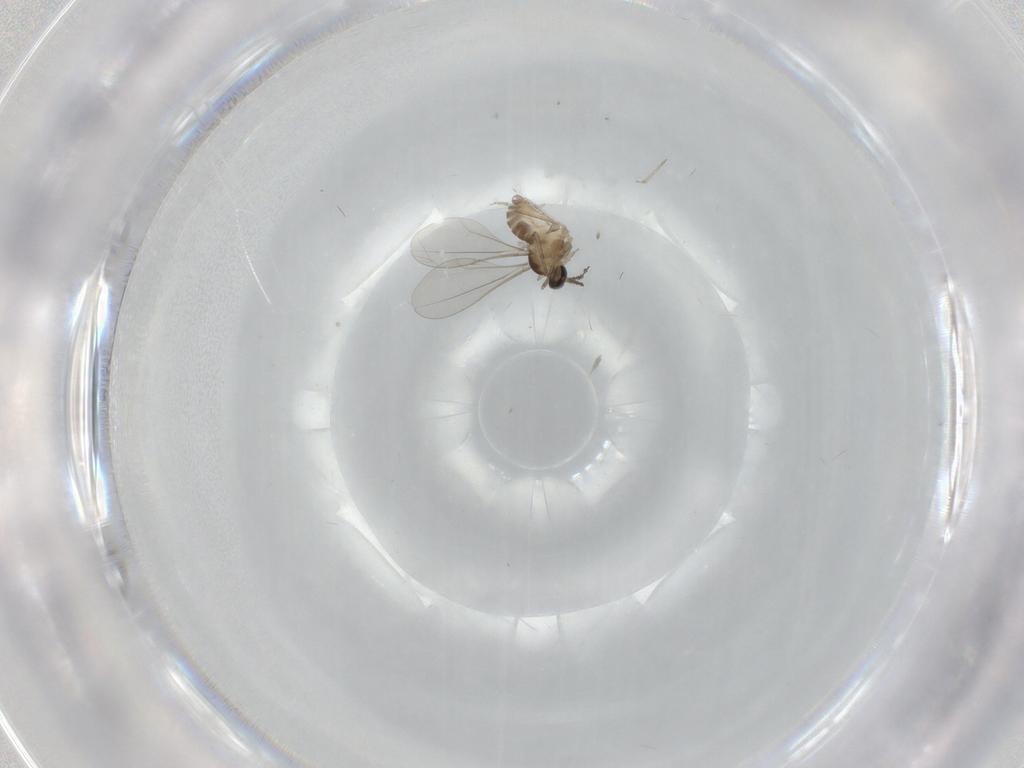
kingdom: Animalia
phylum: Arthropoda
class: Insecta
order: Diptera
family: Cecidomyiidae
